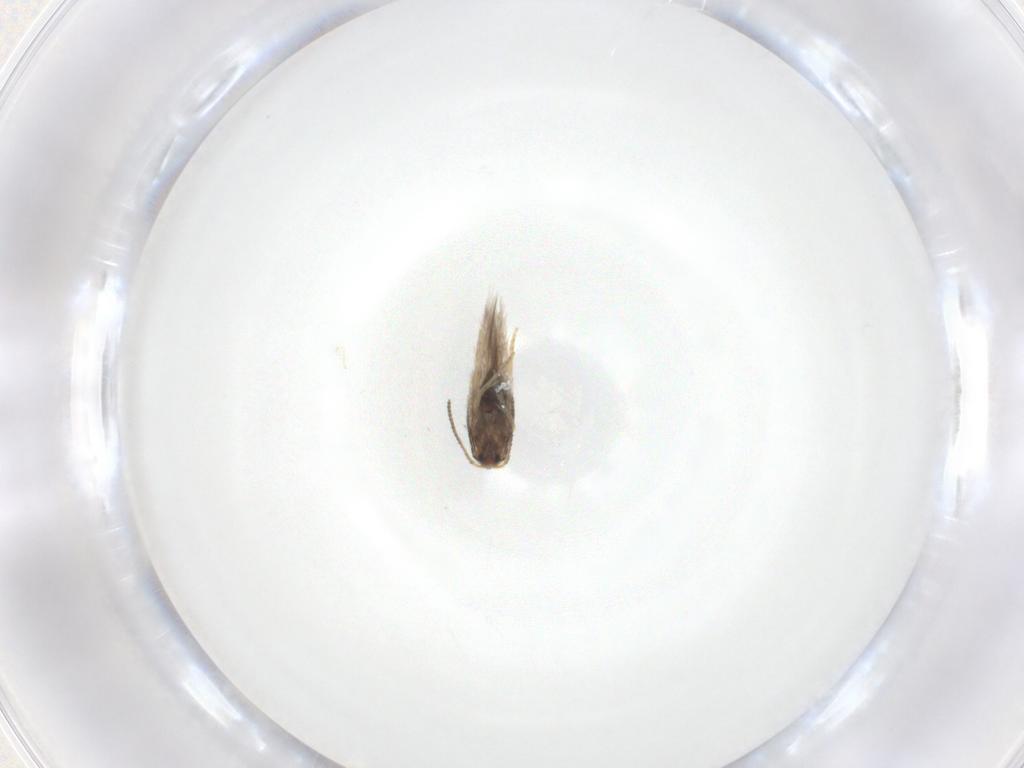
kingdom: Animalia
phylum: Arthropoda
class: Insecta
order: Lepidoptera
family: Nepticulidae
